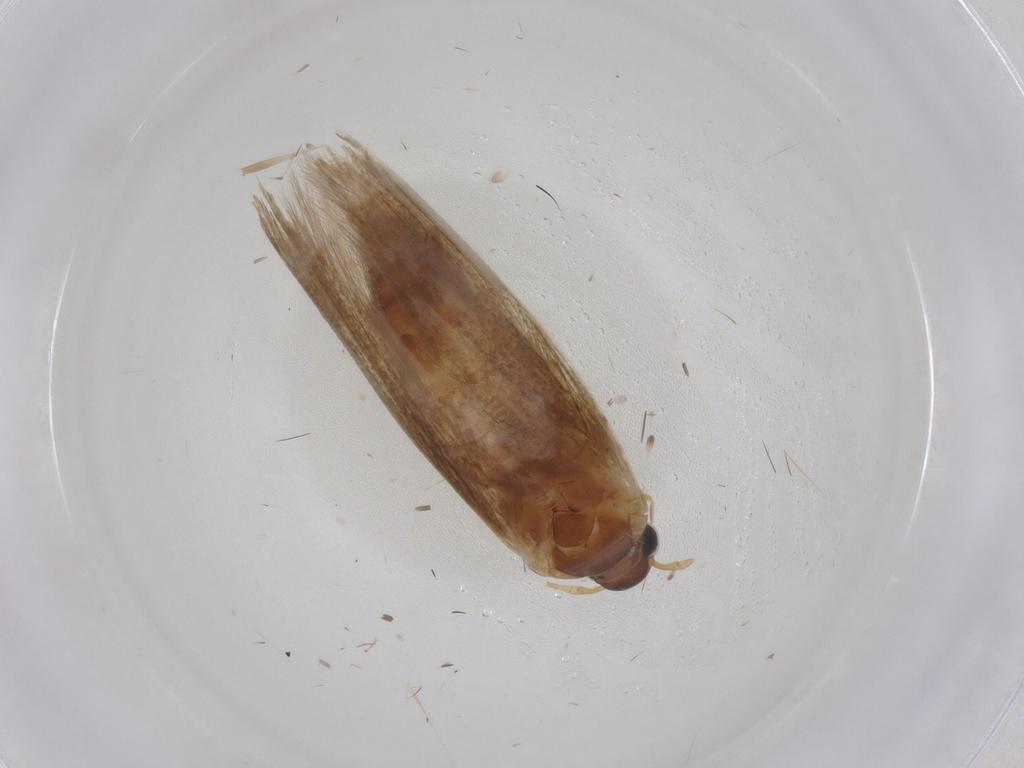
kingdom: Animalia
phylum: Arthropoda
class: Insecta
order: Lepidoptera
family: Blastobasidae
